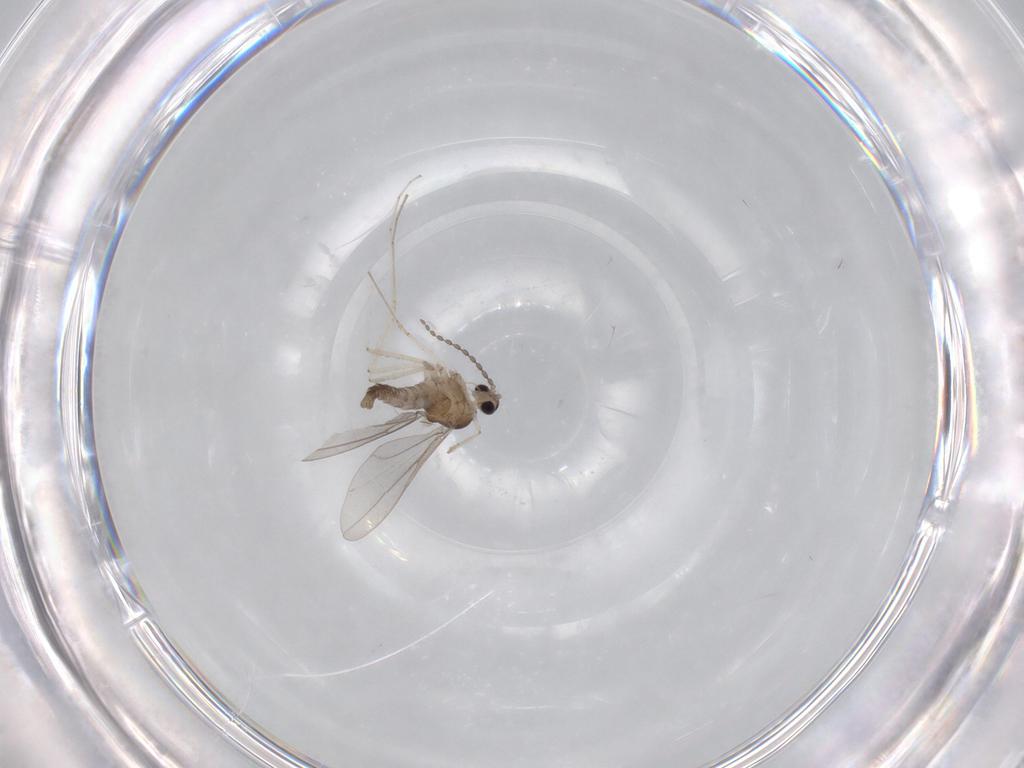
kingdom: Animalia
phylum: Arthropoda
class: Insecta
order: Diptera
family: Cecidomyiidae
